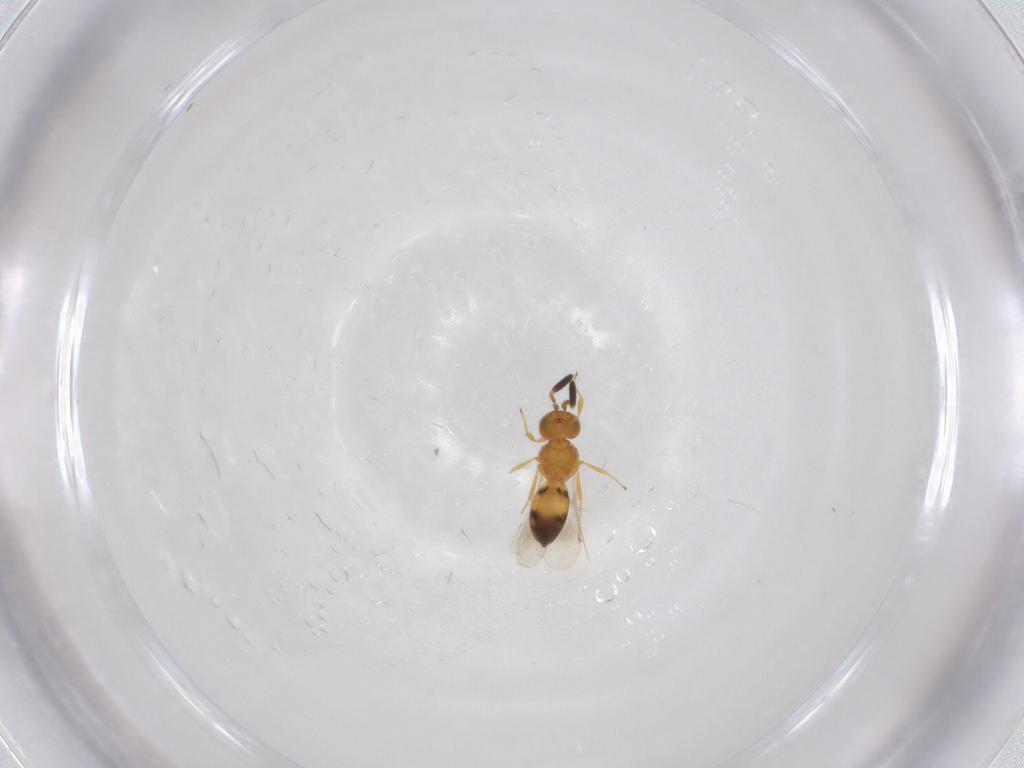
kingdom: Animalia
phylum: Arthropoda
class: Insecta
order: Hymenoptera
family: Scelionidae
